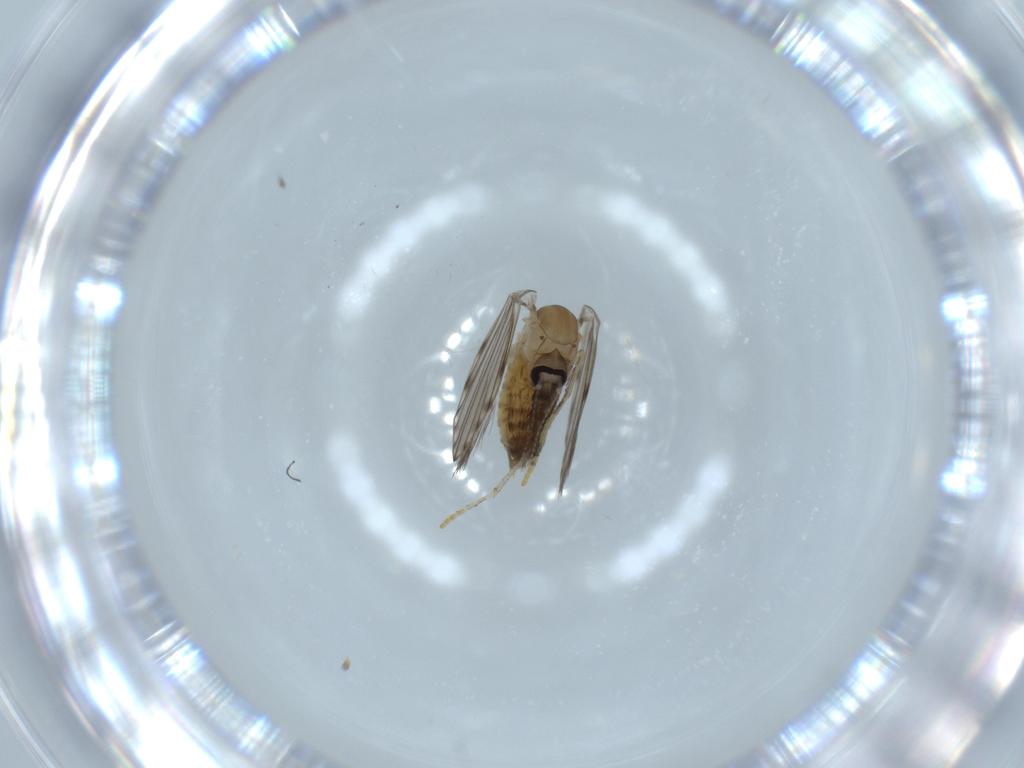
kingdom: Animalia
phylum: Arthropoda
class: Insecta
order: Diptera
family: Psychodidae
